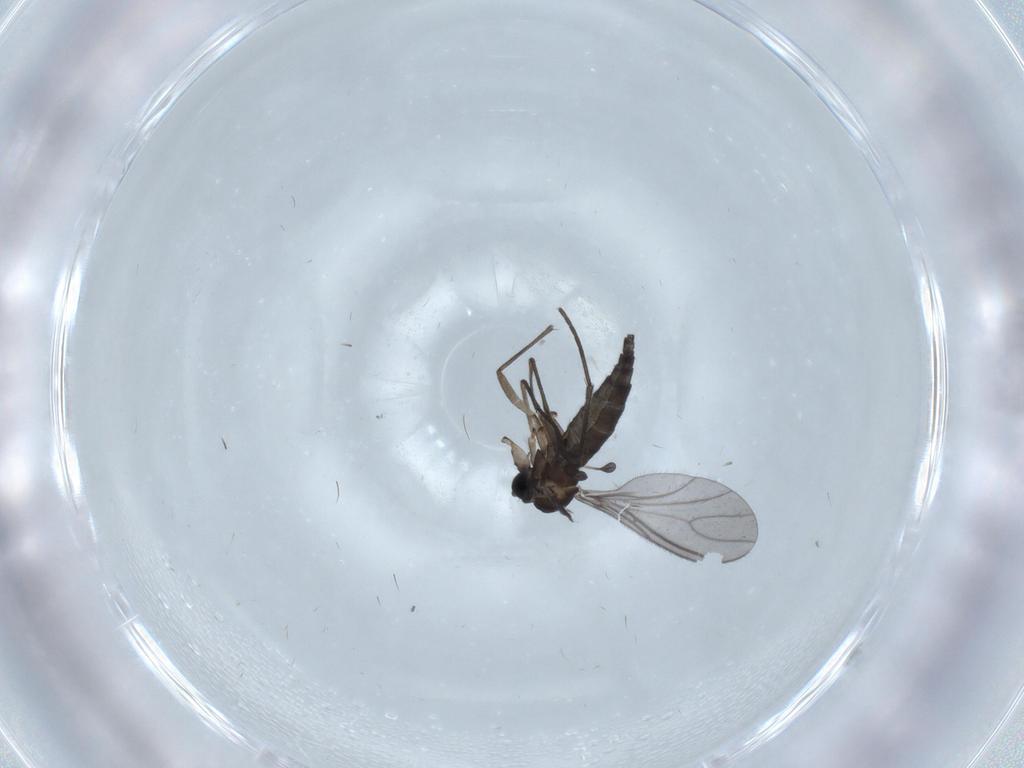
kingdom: Animalia
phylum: Arthropoda
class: Insecta
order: Diptera
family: Sciaridae
